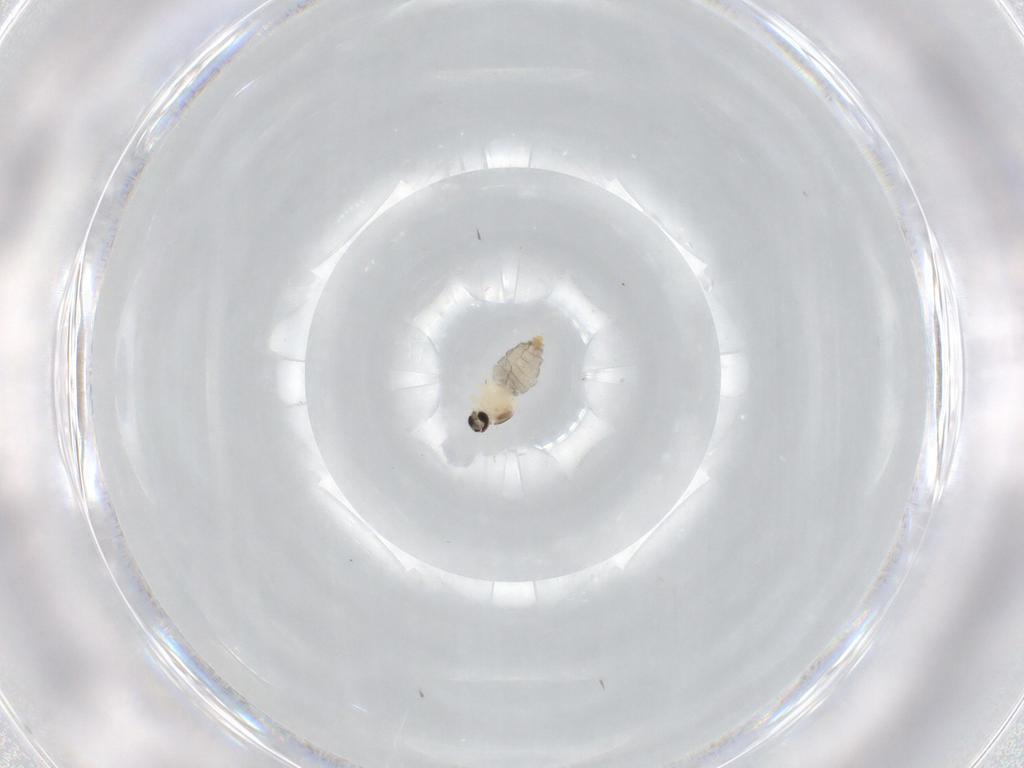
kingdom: Animalia
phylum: Arthropoda
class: Insecta
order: Diptera
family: Sciaridae
